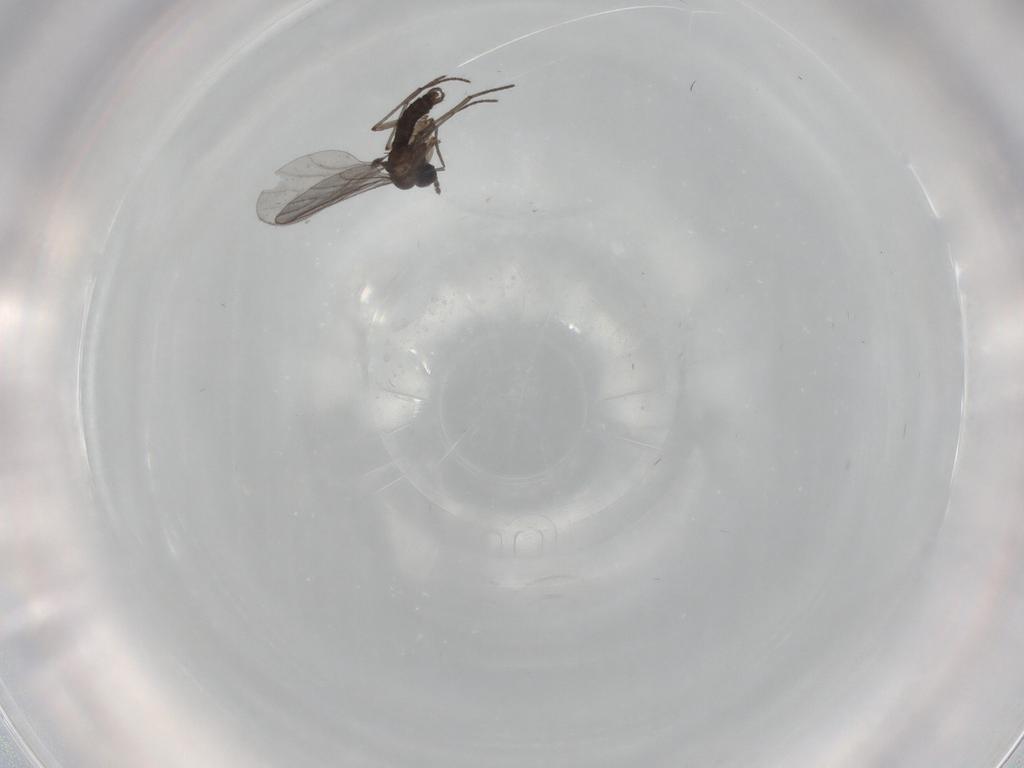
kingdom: Animalia
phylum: Arthropoda
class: Insecta
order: Diptera
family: Sciaridae
